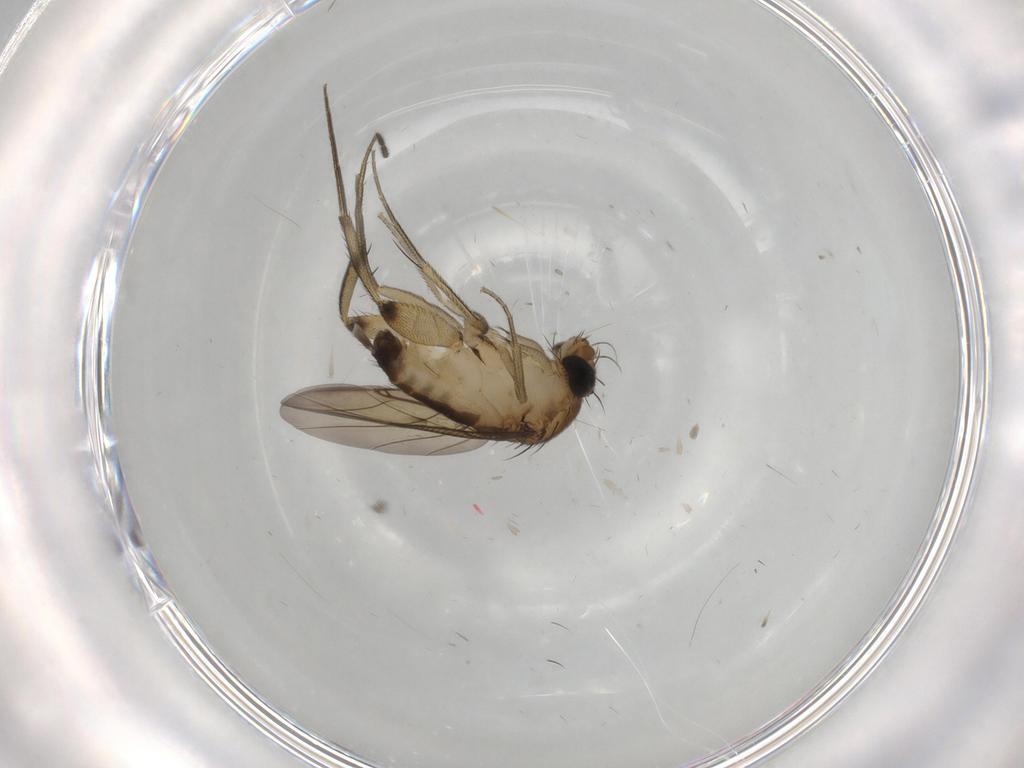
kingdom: Animalia
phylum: Arthropoda
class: Insecta
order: Diptera
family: Phoridae
